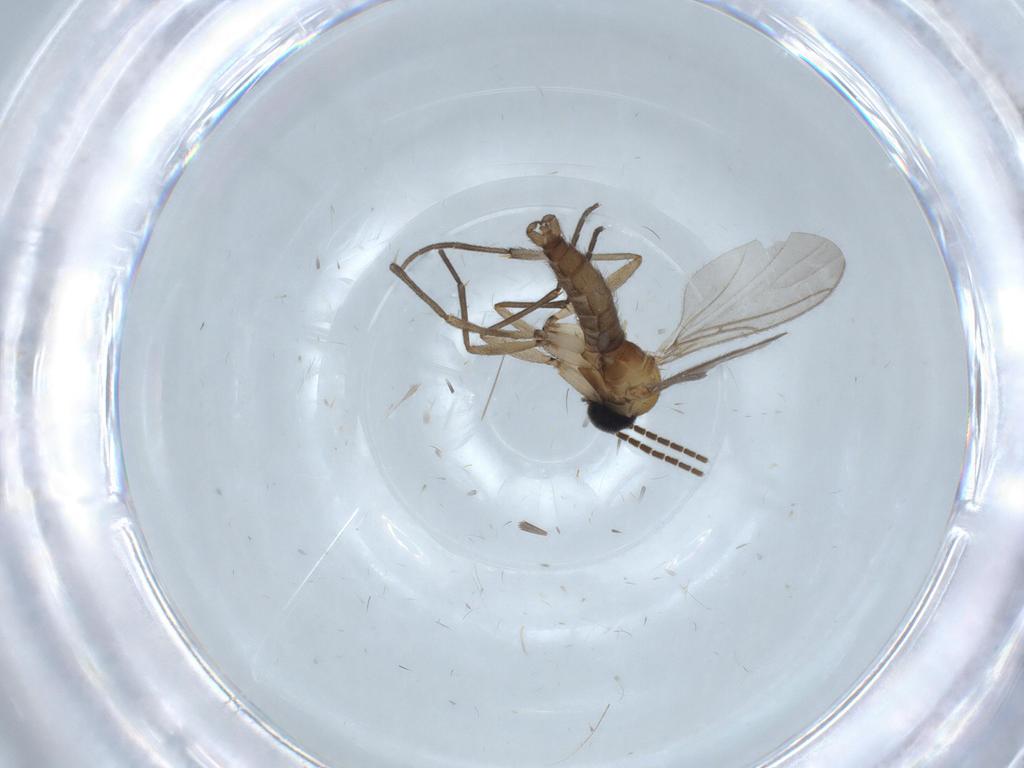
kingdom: Animalia
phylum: Arthropoda
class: Insecta
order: Diptera
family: Sciaridae
